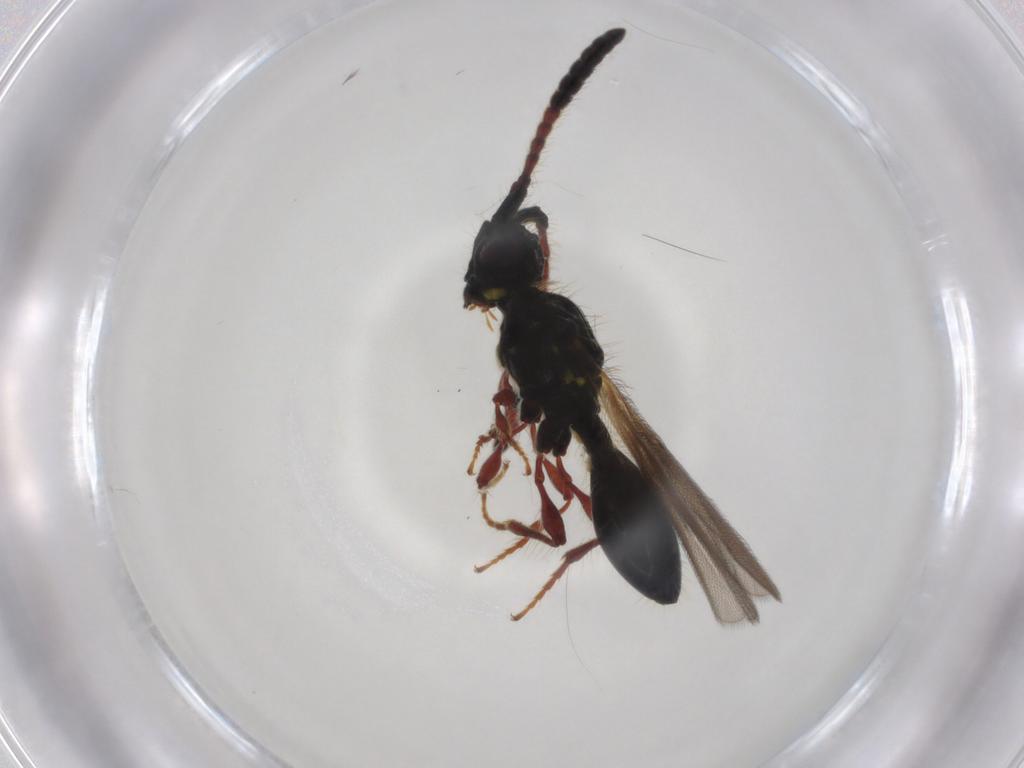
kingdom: Animalia
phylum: Arthropoda
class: Insecta
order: Hymenoptera
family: Diapriidae
